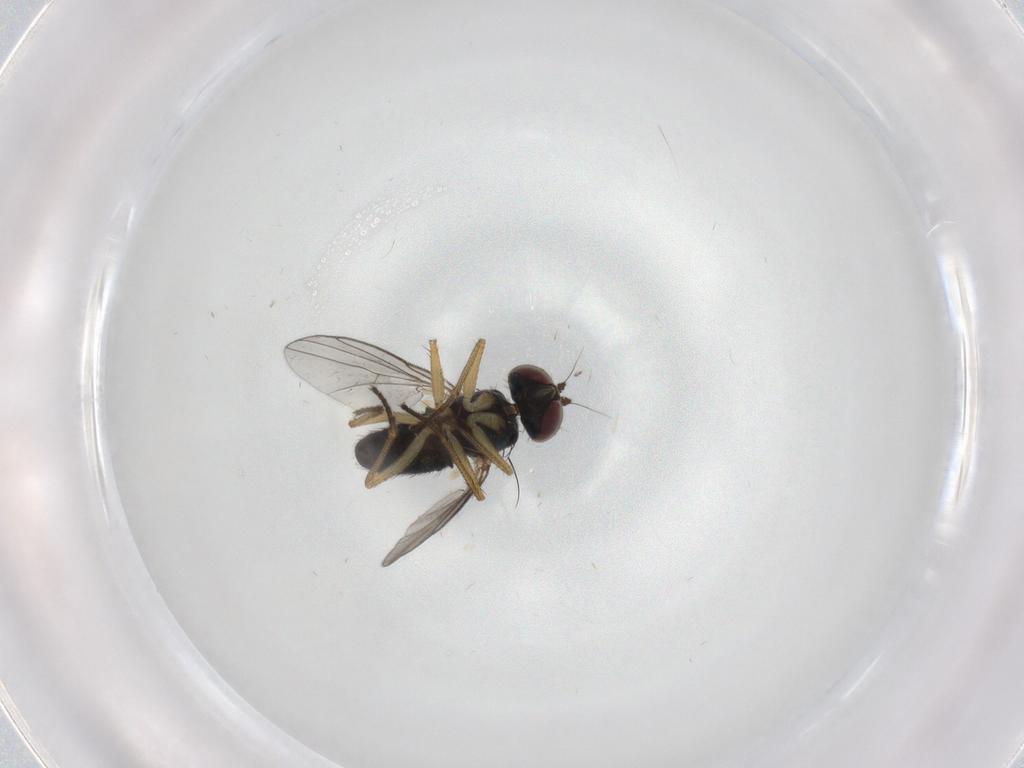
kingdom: Animalia
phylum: Arthropoda
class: Insecta
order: Diptera
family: Dolichopodidae
